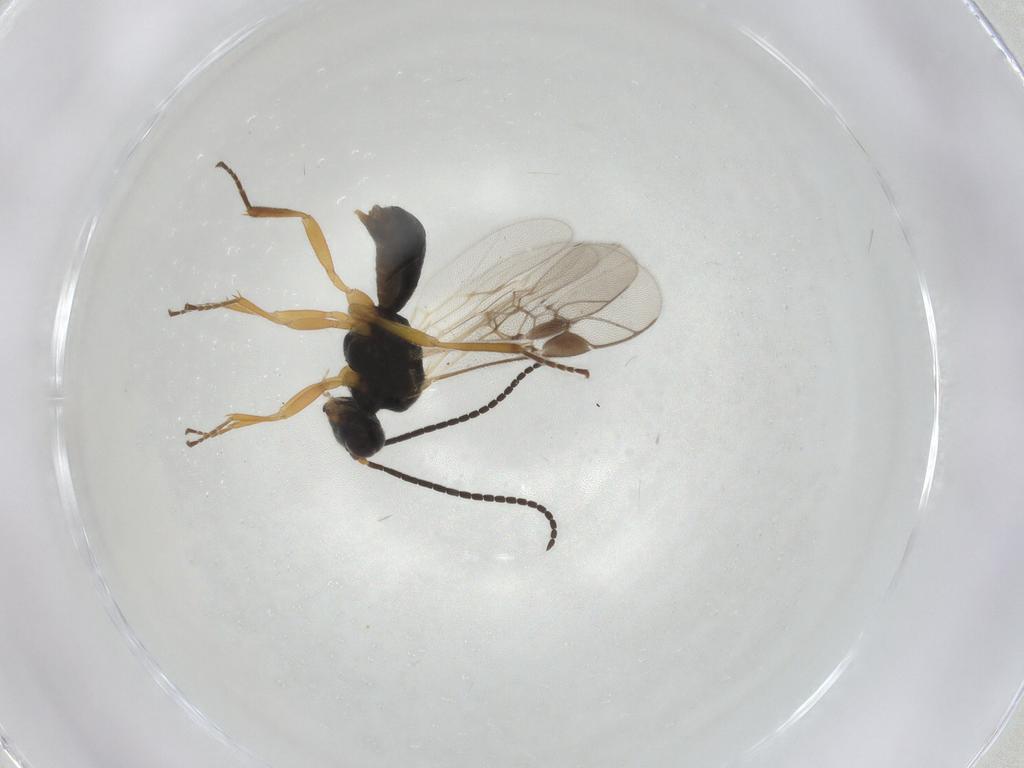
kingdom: Animalia
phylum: Arthropoda
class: Insecta
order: Hymenoptera
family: Braconidae
